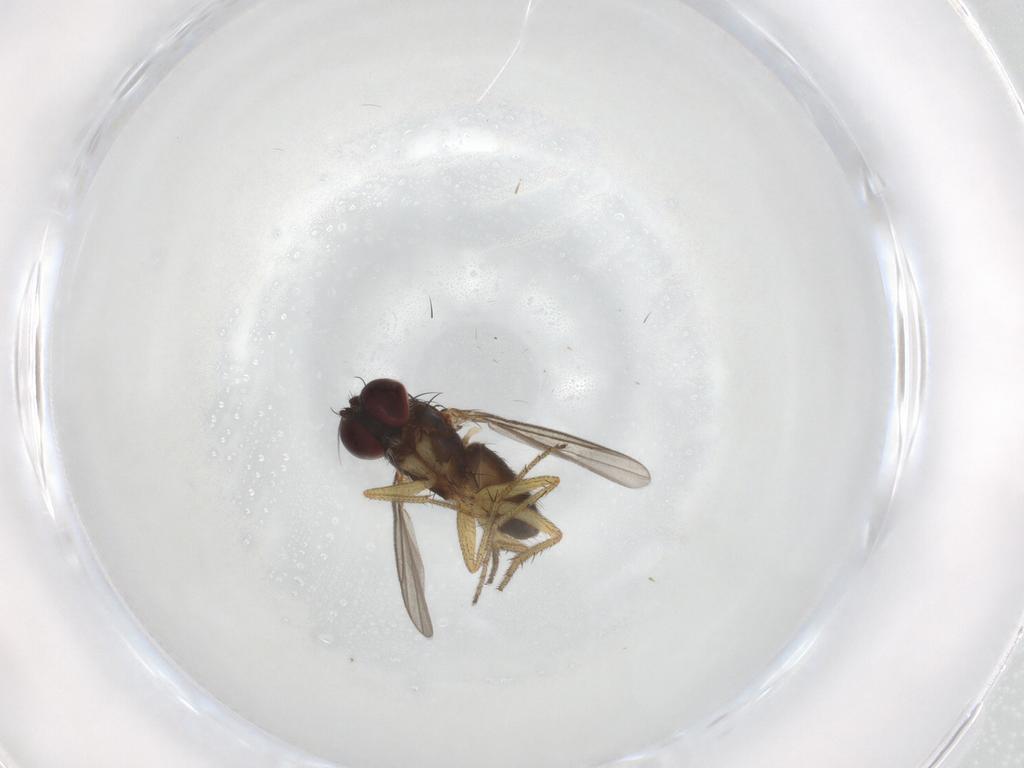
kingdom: Animalia
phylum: Arthropoda
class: Insecta
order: Diptera
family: Dolichopodidae
